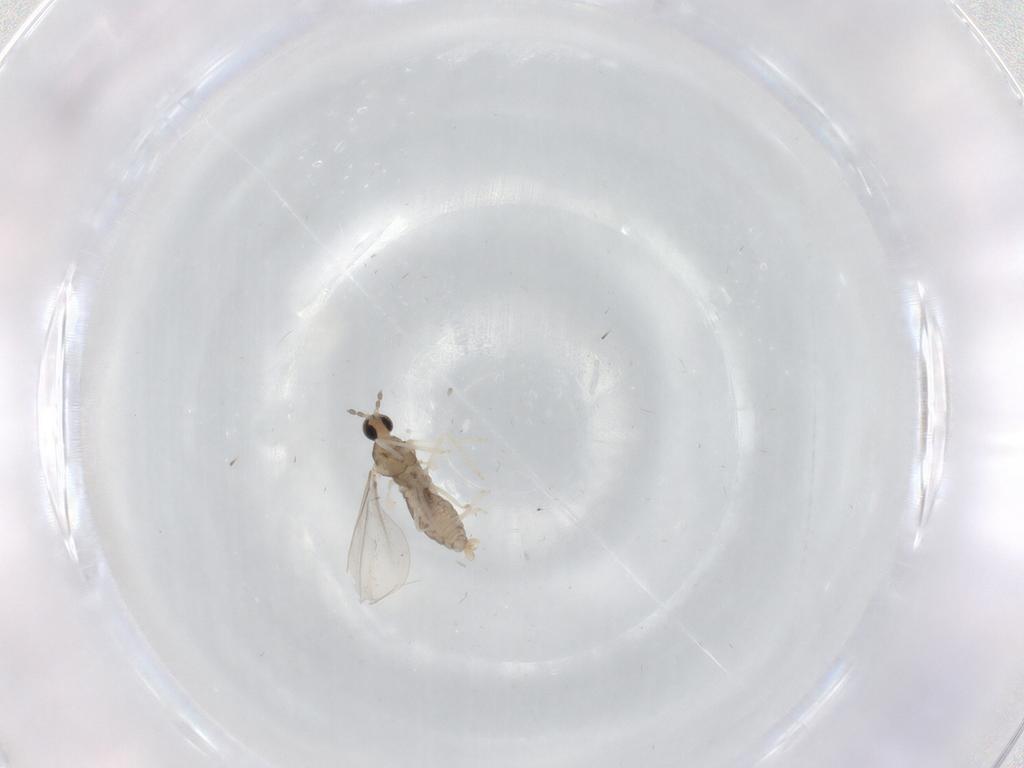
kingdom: Animalia
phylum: Arthropoda
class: Insecta
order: Diptera
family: Cecidomyiidae
